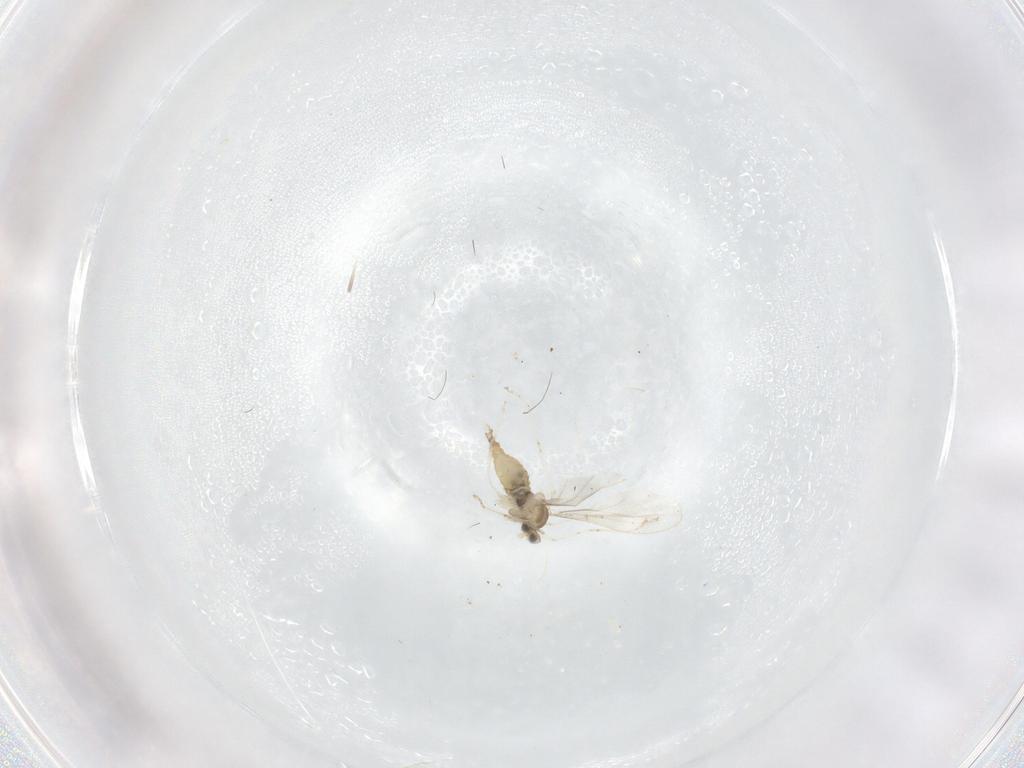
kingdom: Animalia
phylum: Arthropoda
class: Insecta
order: Diptera
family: Cecidomyiidae
